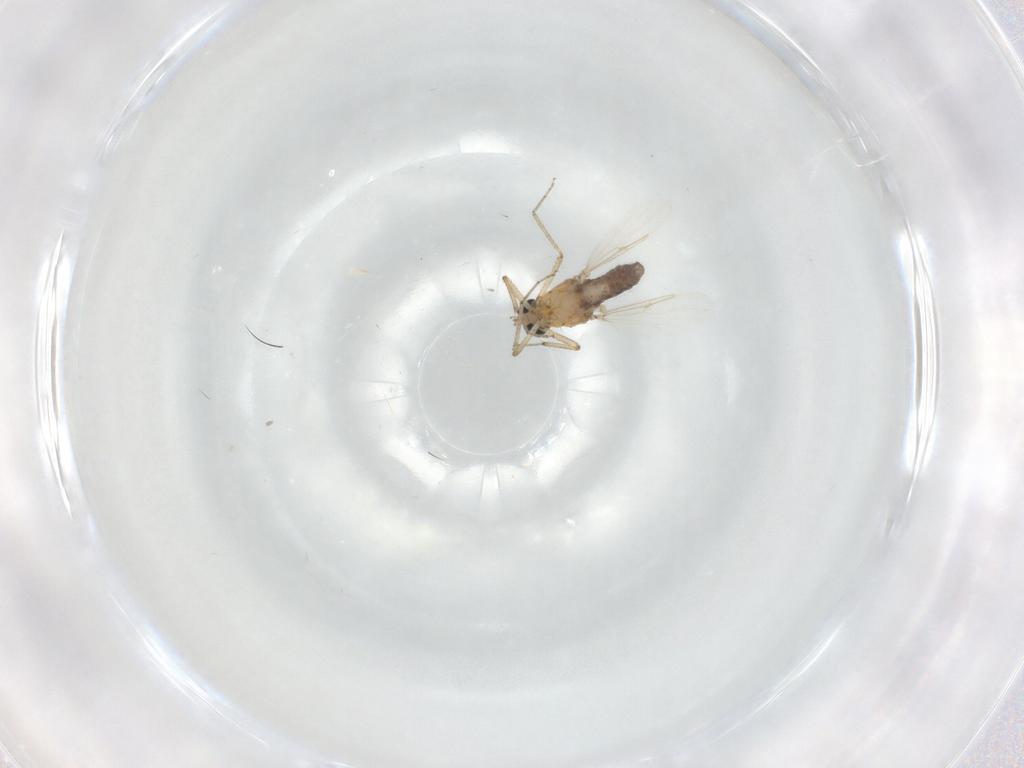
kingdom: Animalia
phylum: Arthropoda
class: Insecta
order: Diptera
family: Ceratopogonidae
